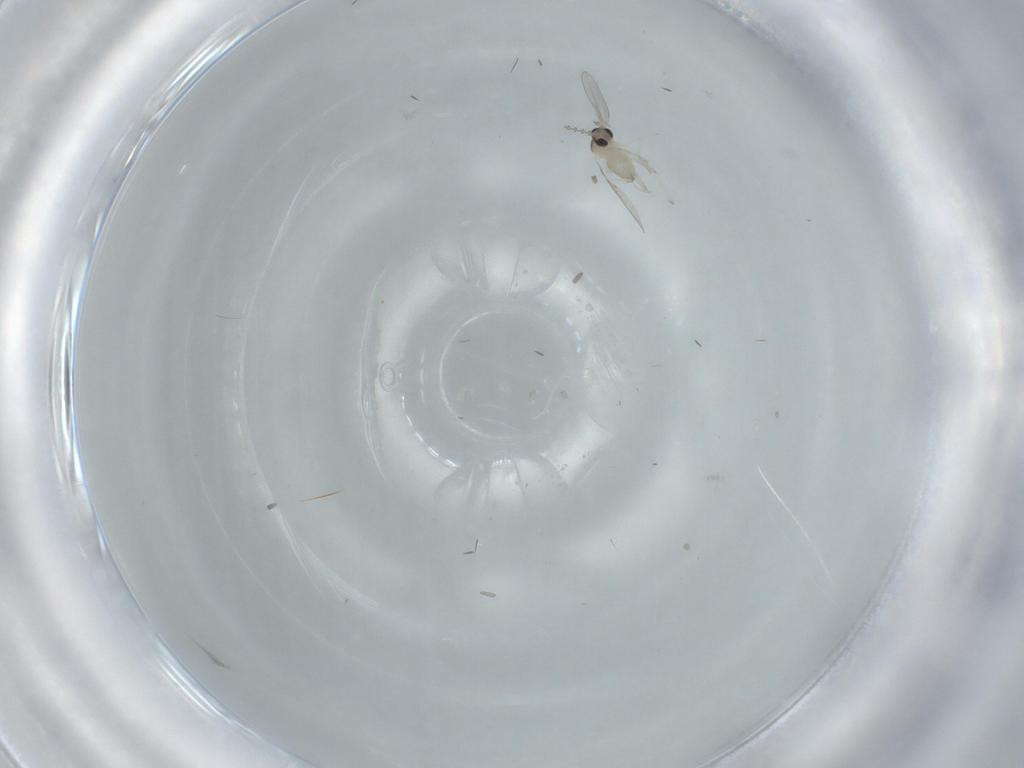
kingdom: Animalia
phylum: Arthropoda
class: Insecta
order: Diptera
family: Cecidomyiidae
